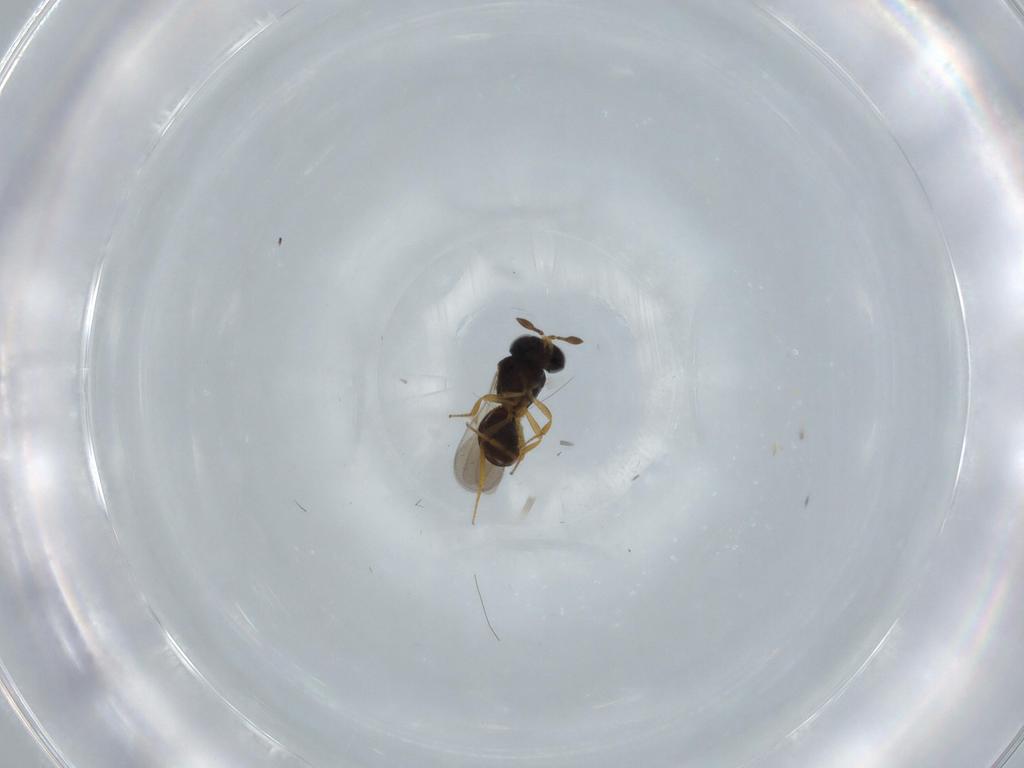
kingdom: Animalia
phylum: Arthropoda
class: Insecta
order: Hymenoptera
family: Scelionidae
